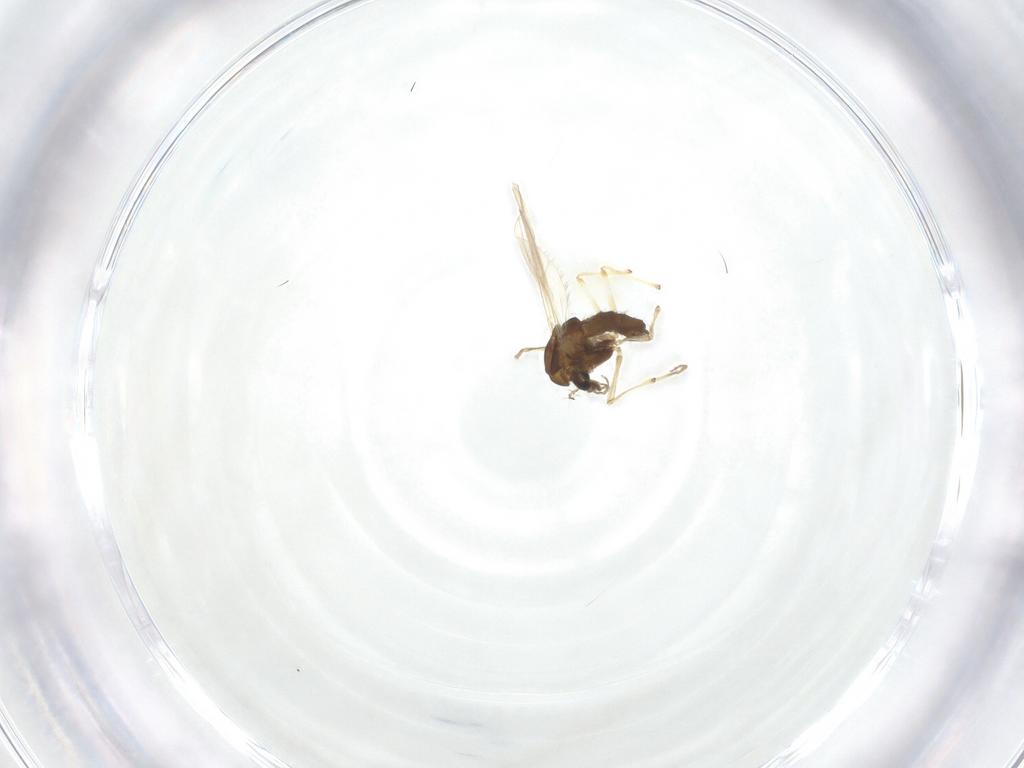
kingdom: Animalia
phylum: Arthropoda
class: Insecta
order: Diptera
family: Chironomidae
